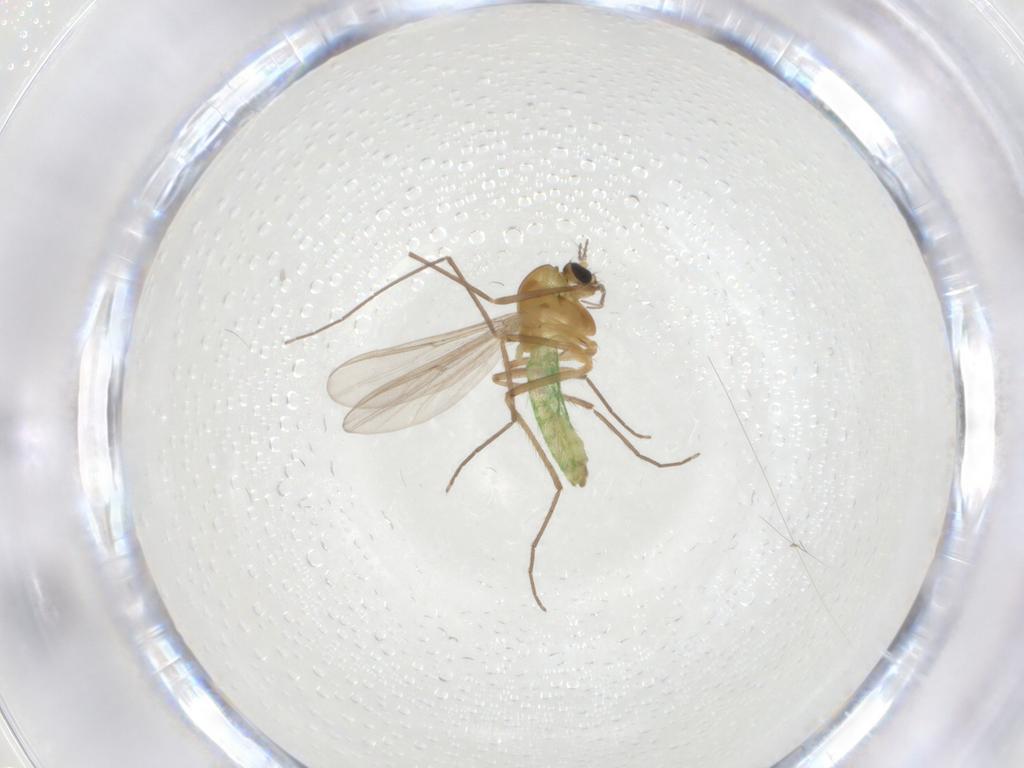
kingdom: Animalia
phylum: Arthropoda
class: Insecta
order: Diptera
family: Chironomidae
